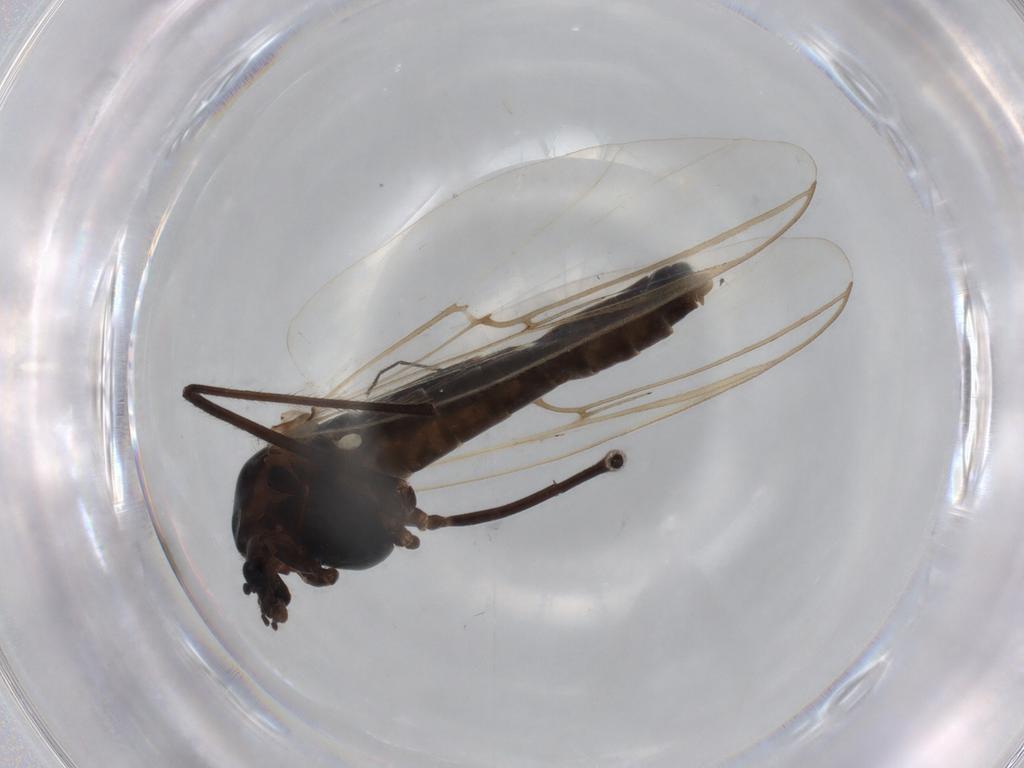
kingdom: Animalia
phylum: Arthropoda
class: Insecta
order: Diptera
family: Chironomidae
